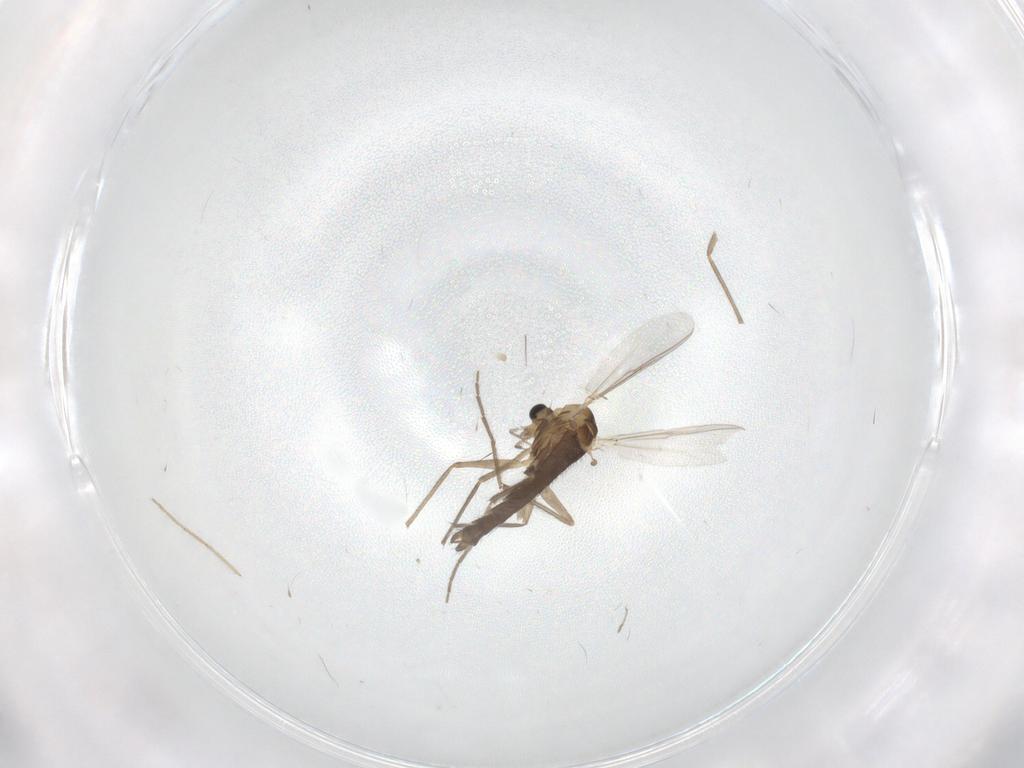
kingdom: Animalia
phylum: Arthropoda
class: Insecta
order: Diptera
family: Chironomidae
